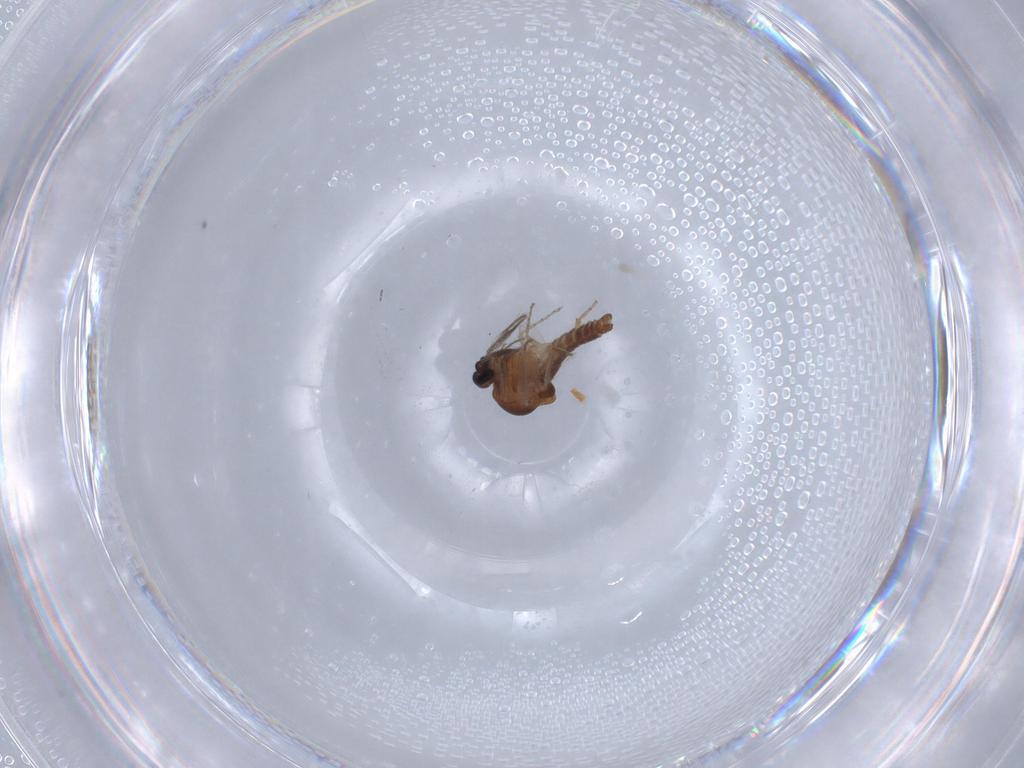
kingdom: Animalia
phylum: Arthropoda
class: Insecta
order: Diptera
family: Ceratopogonidae
